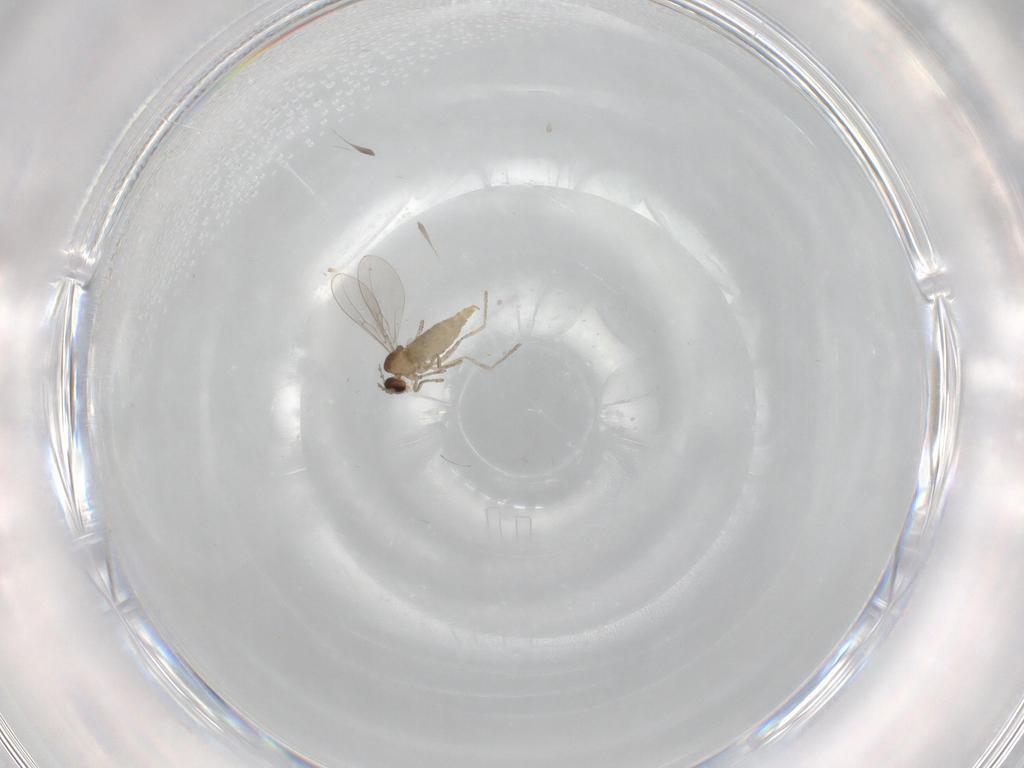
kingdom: Animalia
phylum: Arthropoda
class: Insecta
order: Diptera
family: Cecidomyiidae
